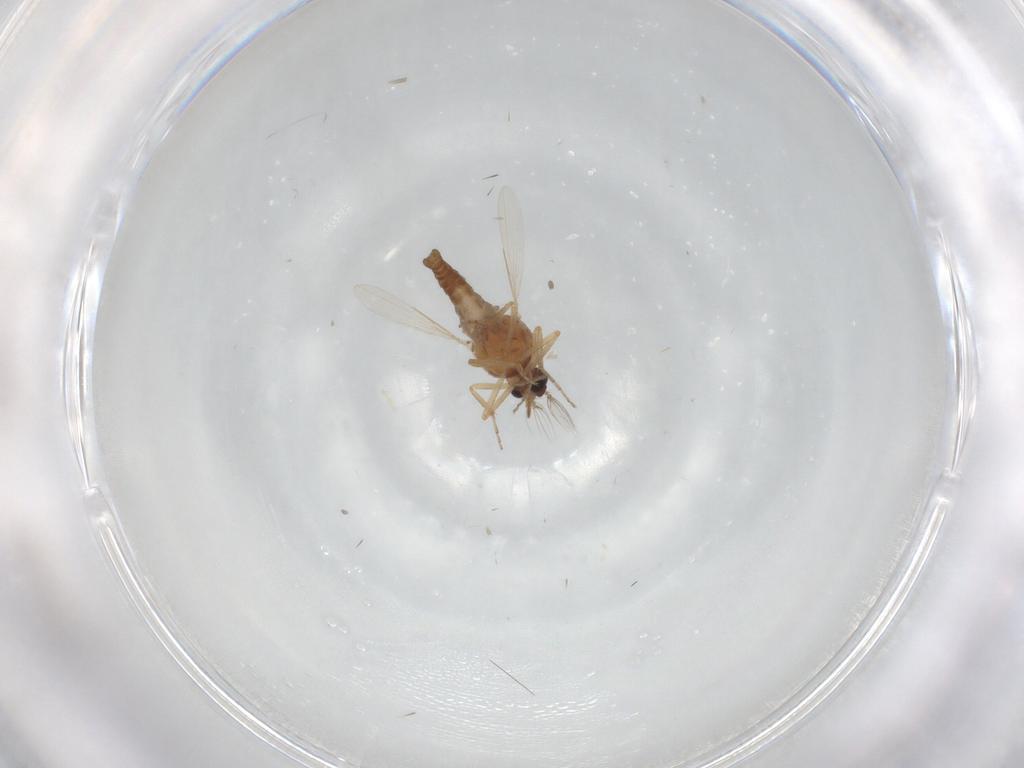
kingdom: Animalia
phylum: Arthropoda
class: Insecta
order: Diptera
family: Ceratopogonidae
